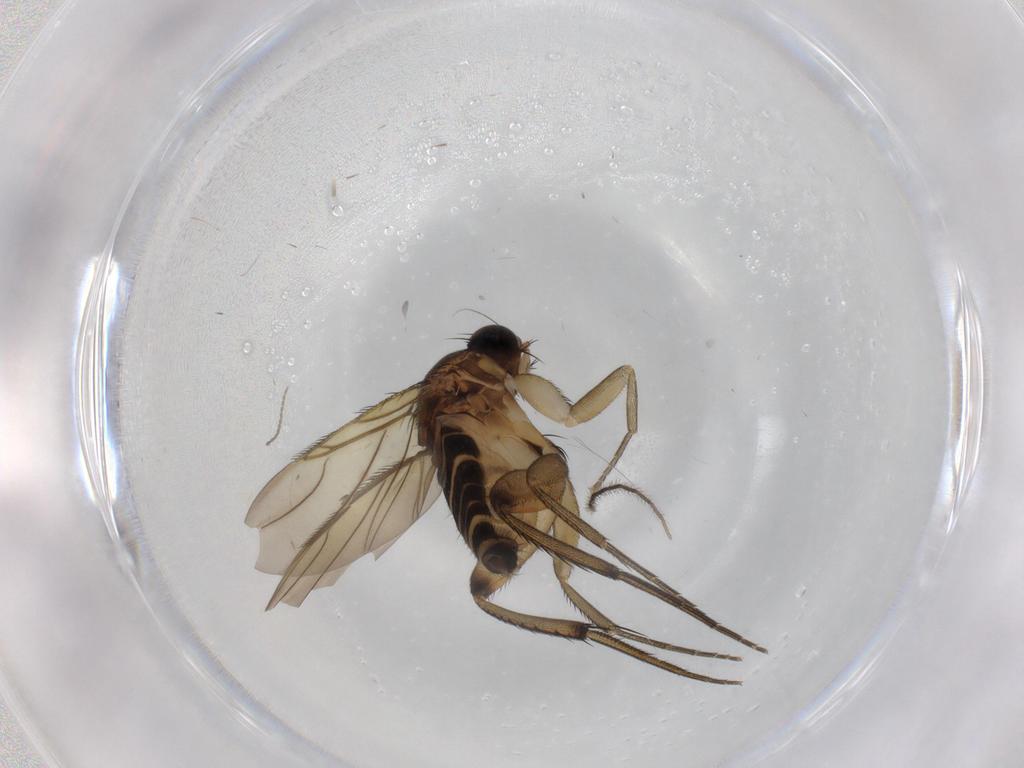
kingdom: Animalia
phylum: Arthropoda
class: Insecta
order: Diptera
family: Phoridae
